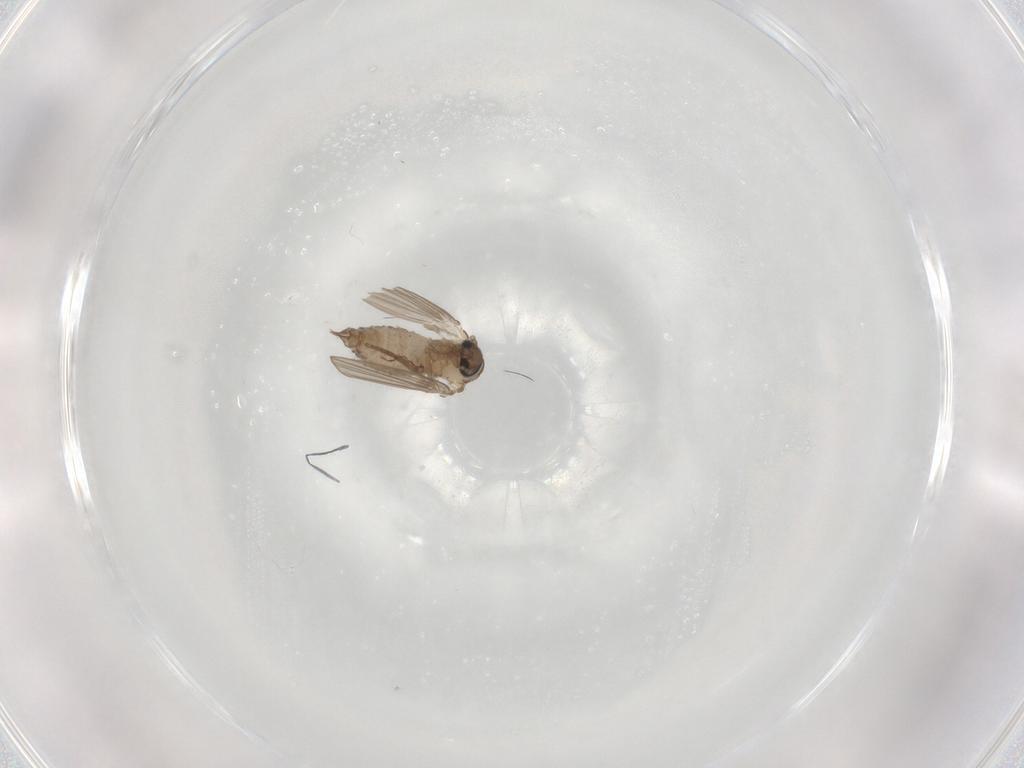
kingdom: Animalia
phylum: Arthropoda
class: Insecta
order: Diptera
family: Psychodidae
